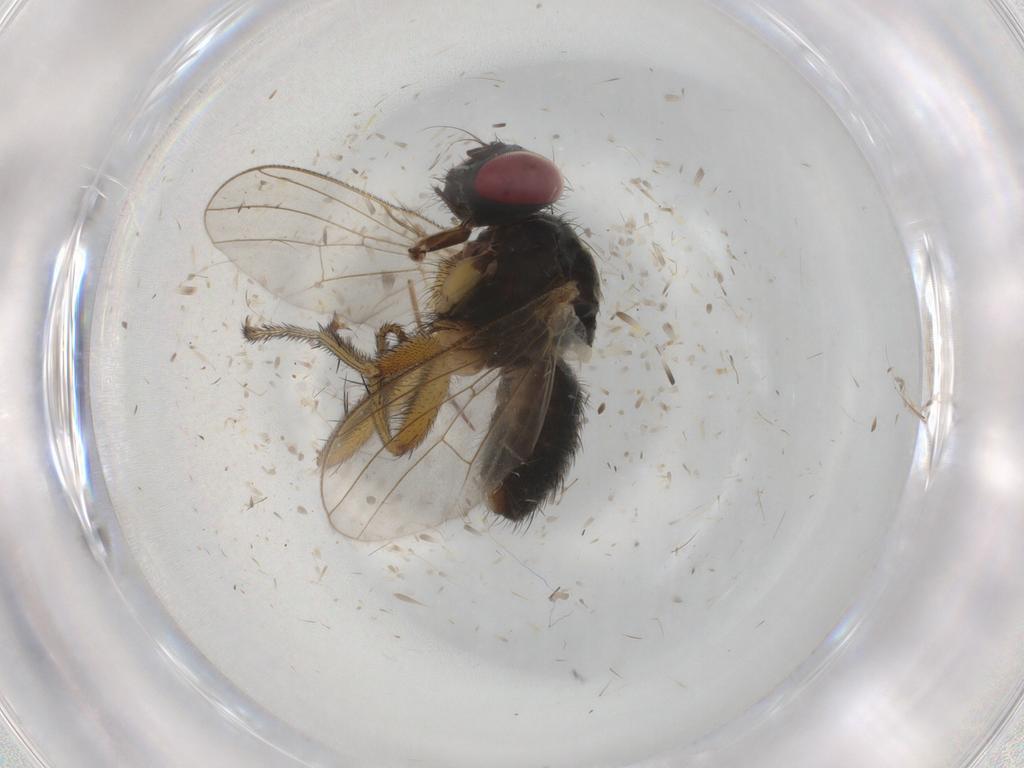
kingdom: Animalia
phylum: Arthropoda
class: Insecta
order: Diptera
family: Muscidae
